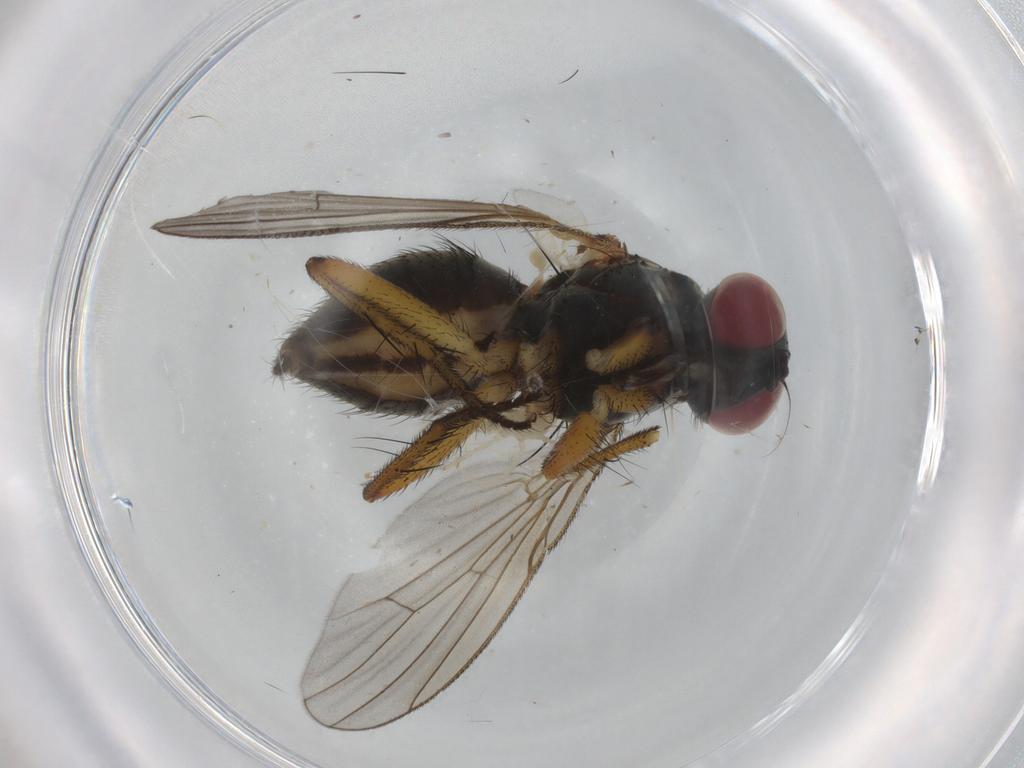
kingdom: Animalia
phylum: Arthropoda
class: Insecta
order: Diptera
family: Muscidae
